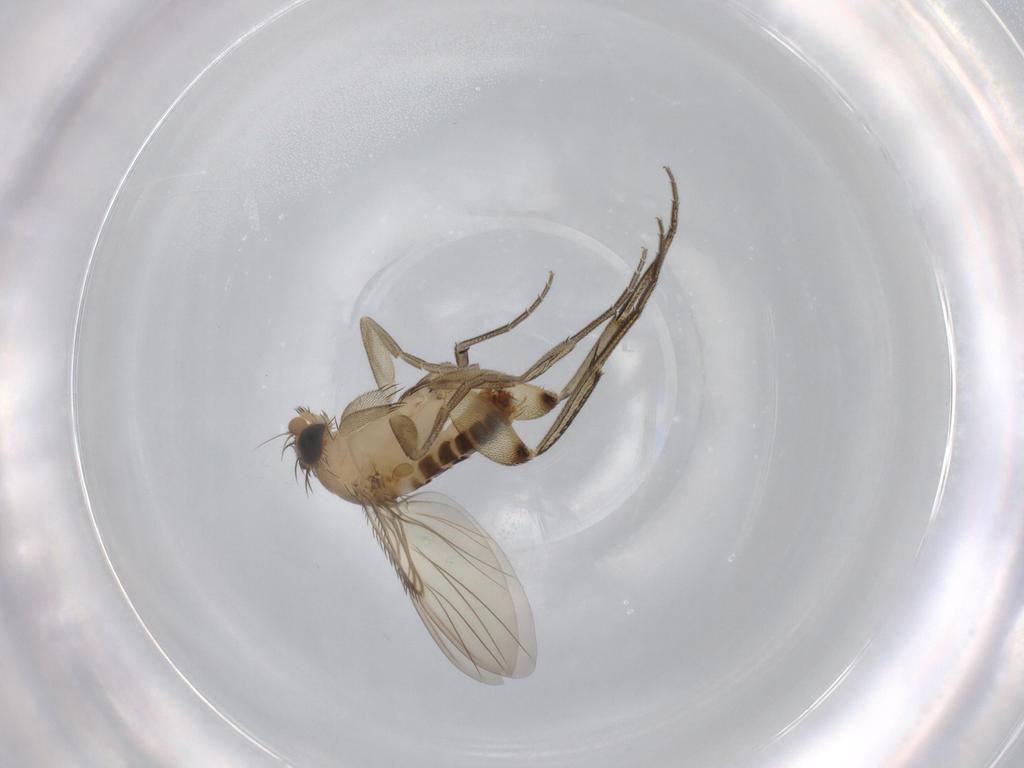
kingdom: Animalia
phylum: Arthropoda
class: Insecta
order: Diptera
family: Phoridae
